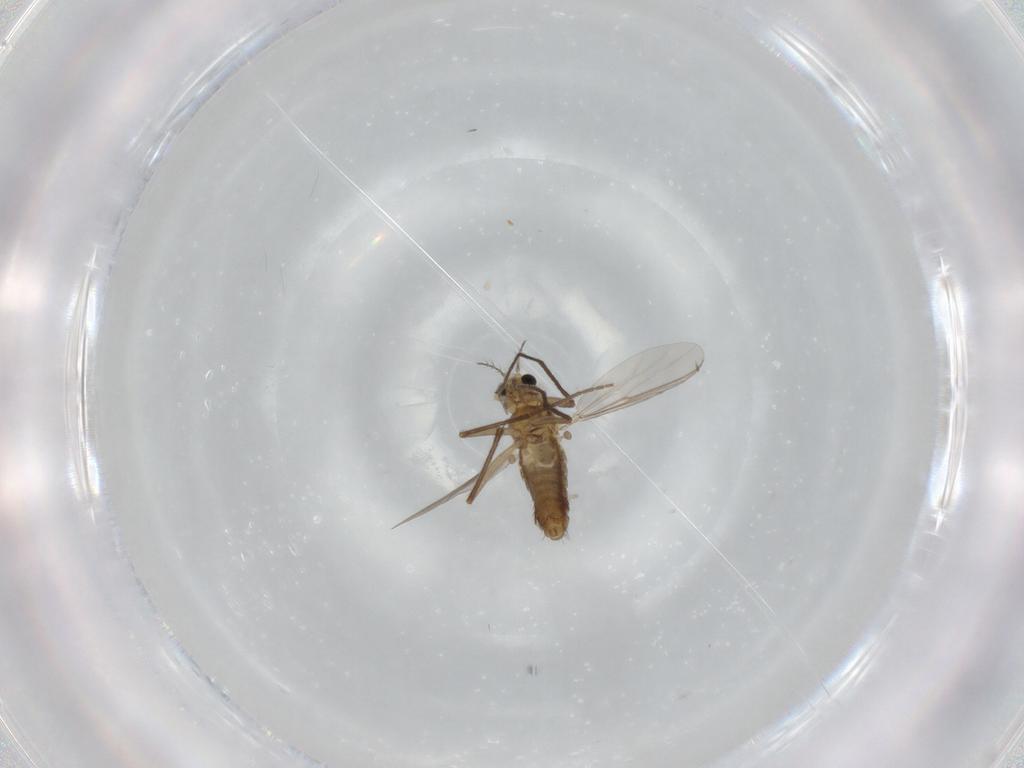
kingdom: Animalia
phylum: Arthropoda
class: Insecta
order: Diptera
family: Chironomidae
